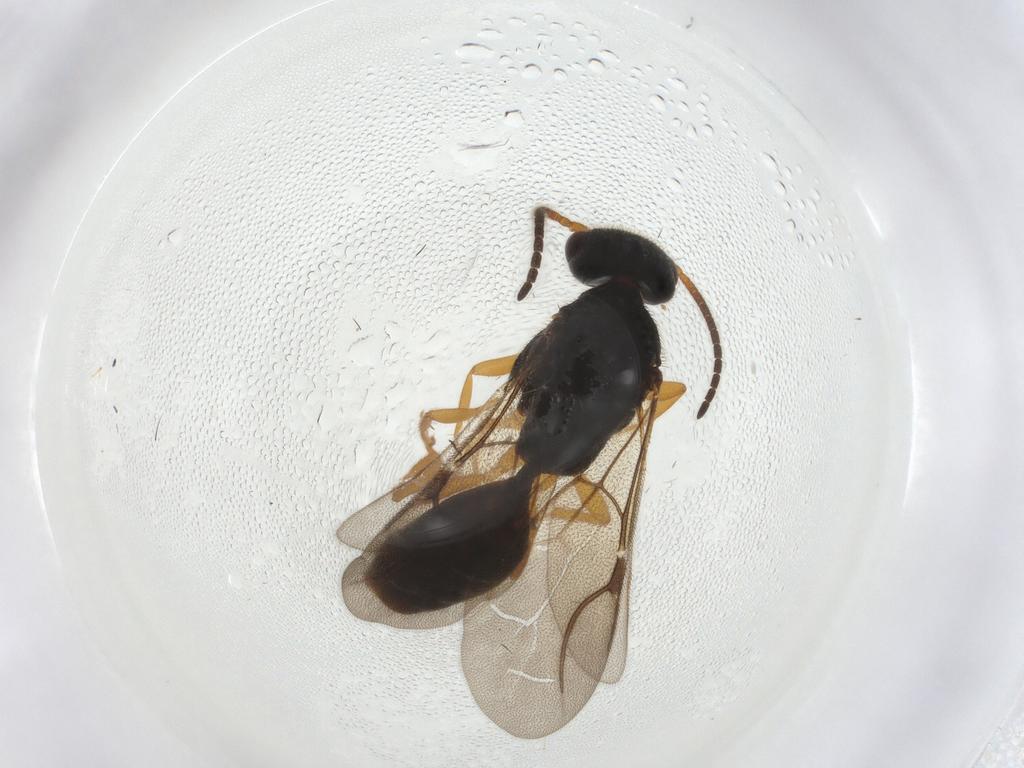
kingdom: Animalia
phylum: Arthropoda
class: Insecta
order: Hymenoptera
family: Bethylidae
